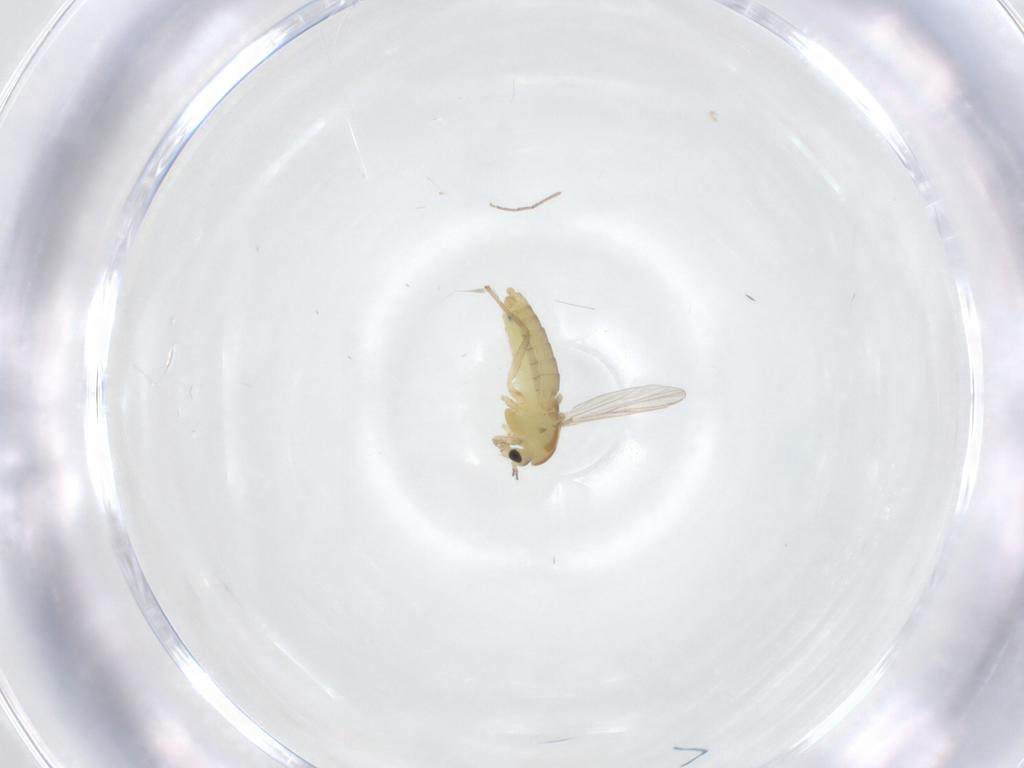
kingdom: Animalia
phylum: Arthropoda
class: Insecta
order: Diptera
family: Chironomidae
